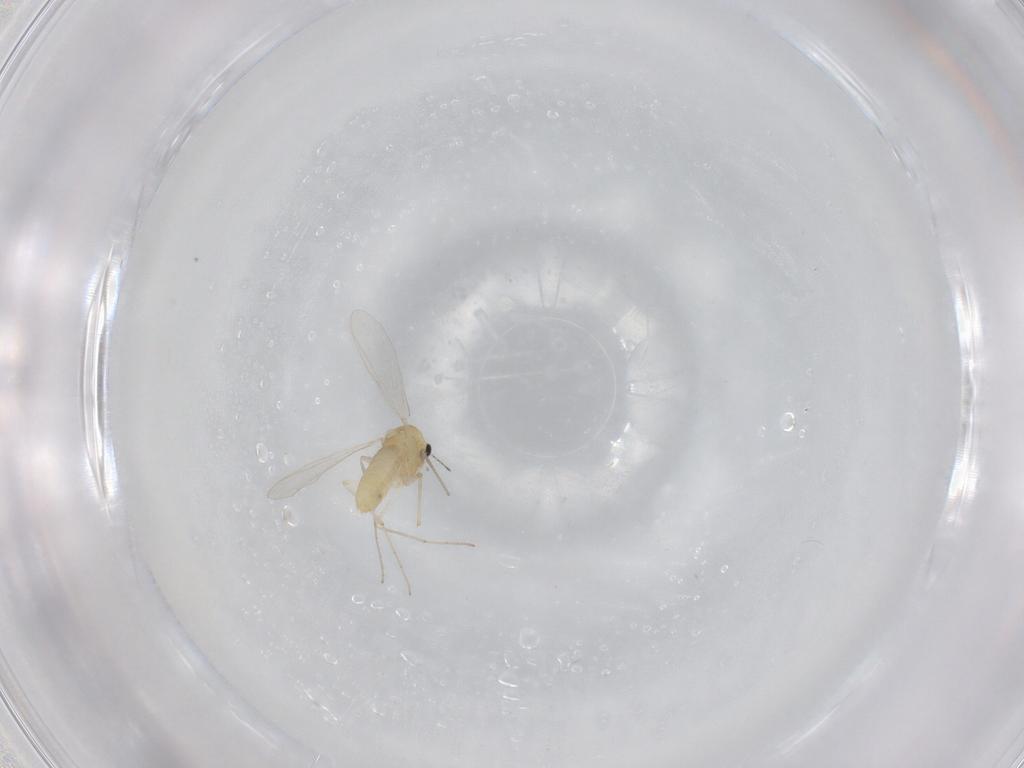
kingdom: Animalia
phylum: Arthropoda
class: Insecta
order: Diptera
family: Chironomidae
